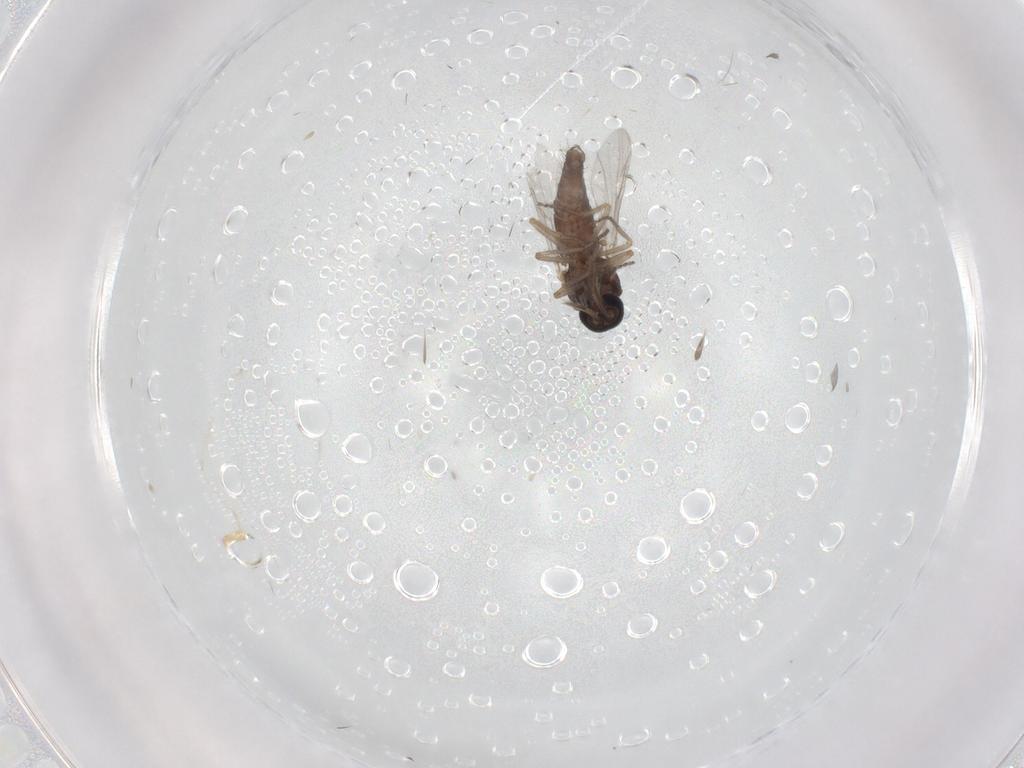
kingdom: Animalia
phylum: Arthropoda
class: Insecta
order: Diptera
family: Ceratopogonidae
